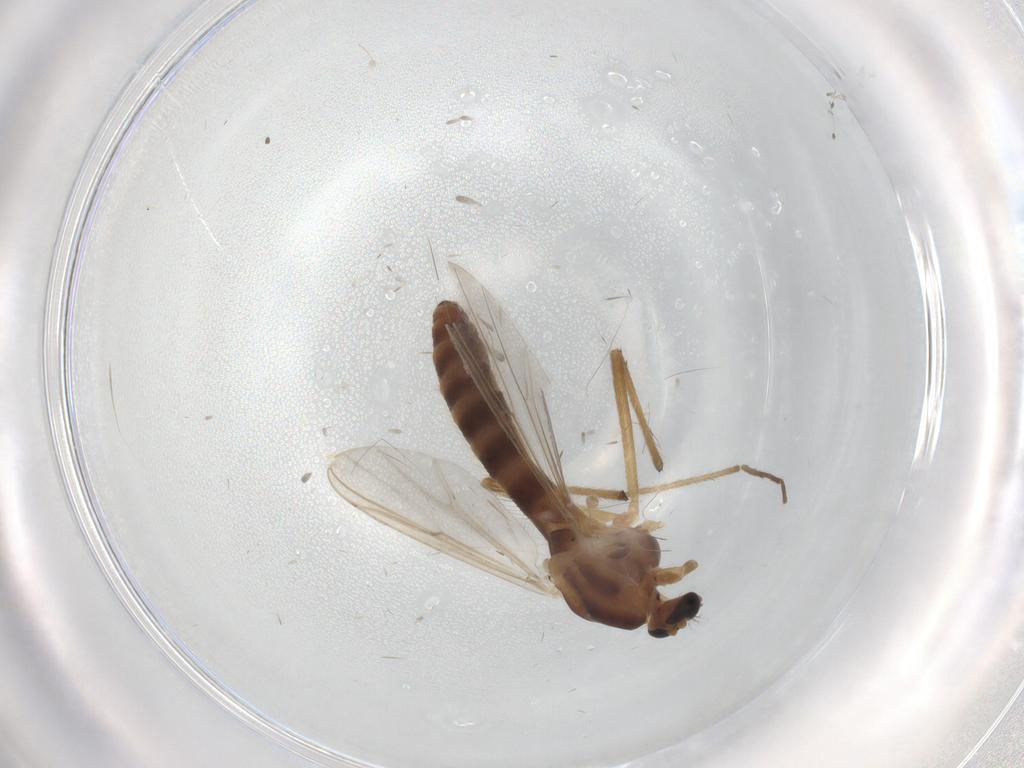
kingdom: Animalia
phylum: Arthropoda
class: Insecta
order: Diptera
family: Chironomidae
